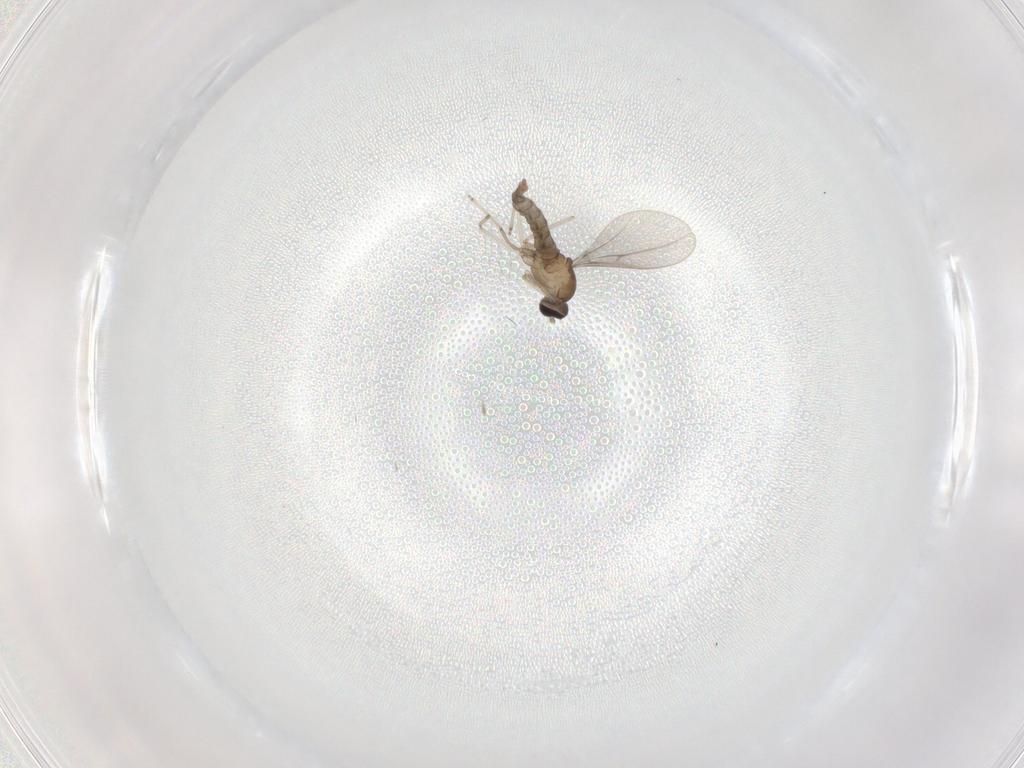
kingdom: Animalia
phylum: Arthropoda
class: Insecta
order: Diptera
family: Cecidomyiidae
